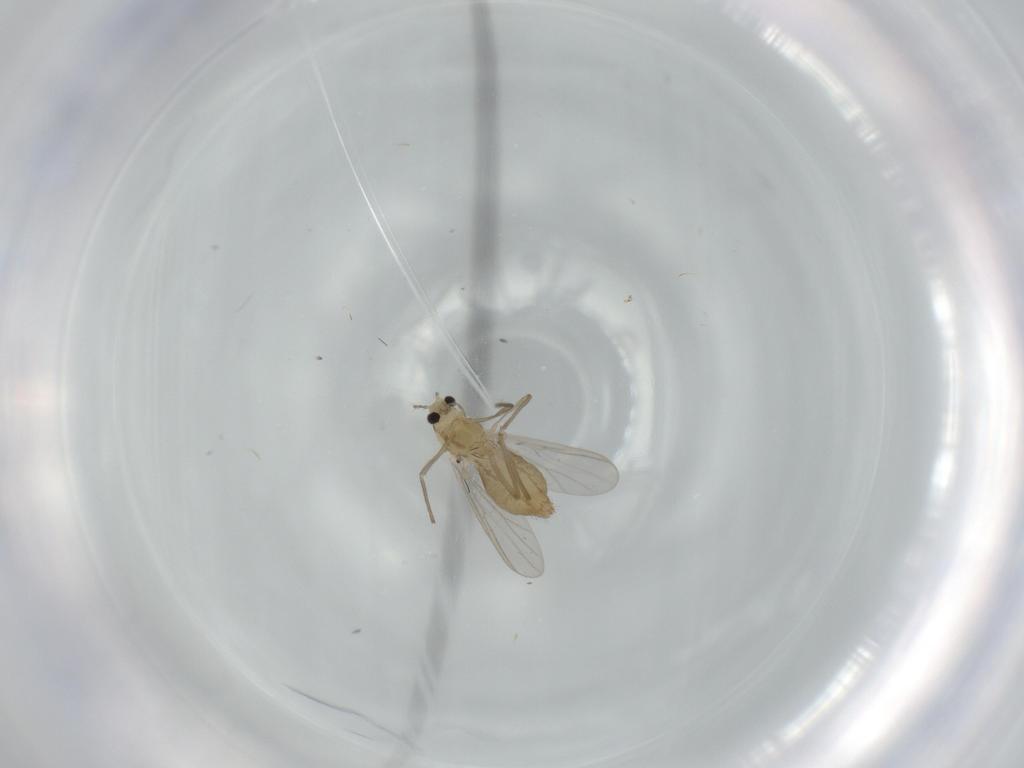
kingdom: Animalia
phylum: Arthropoda
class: Insecta
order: Diptera
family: Chironomidae
